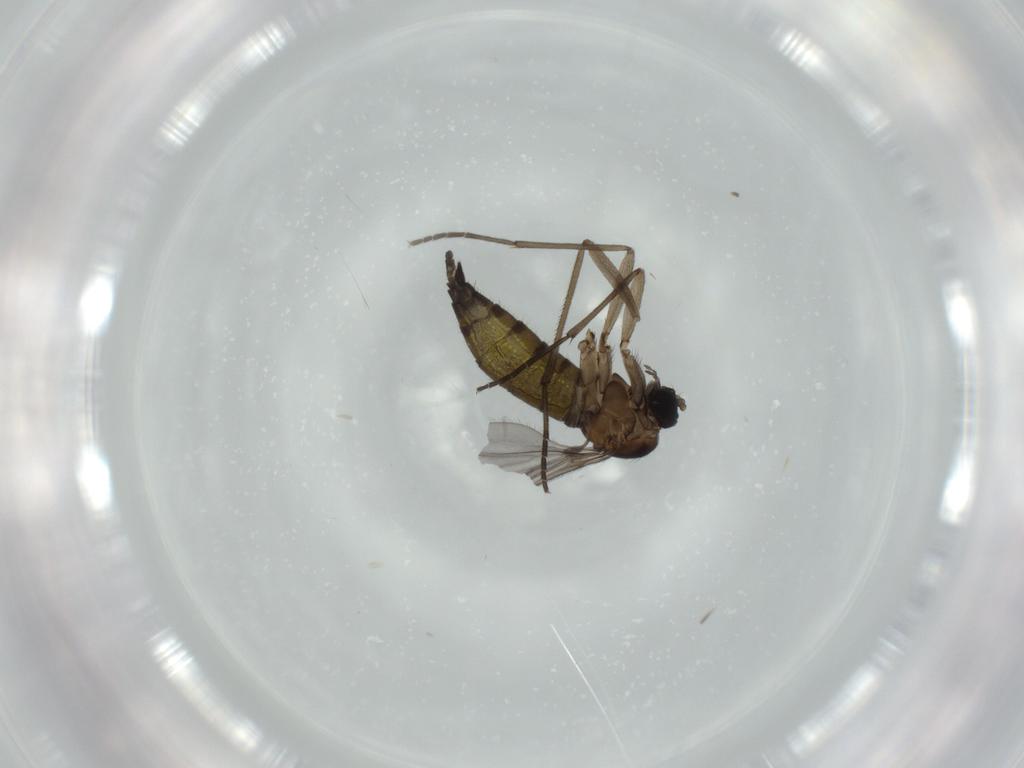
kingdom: Animalia
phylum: Arthropoda
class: Insecta
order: Diptera
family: Sciaridae
